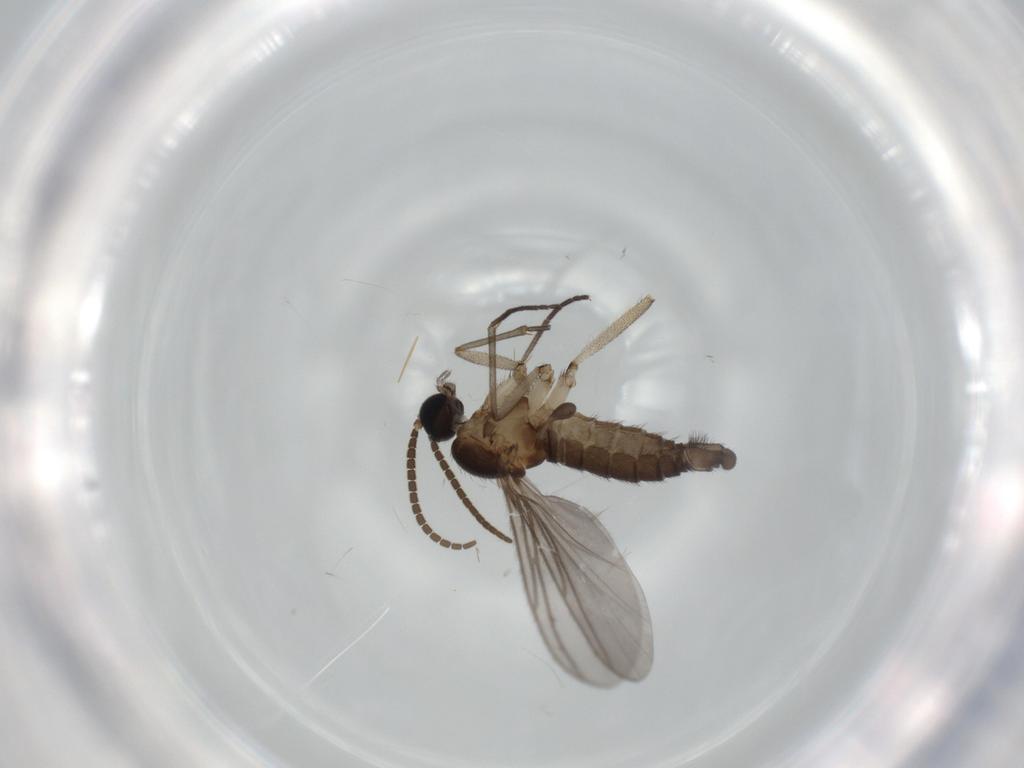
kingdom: Animalia
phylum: Arthropoda
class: Insecta
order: Diptera
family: Sciaridae
